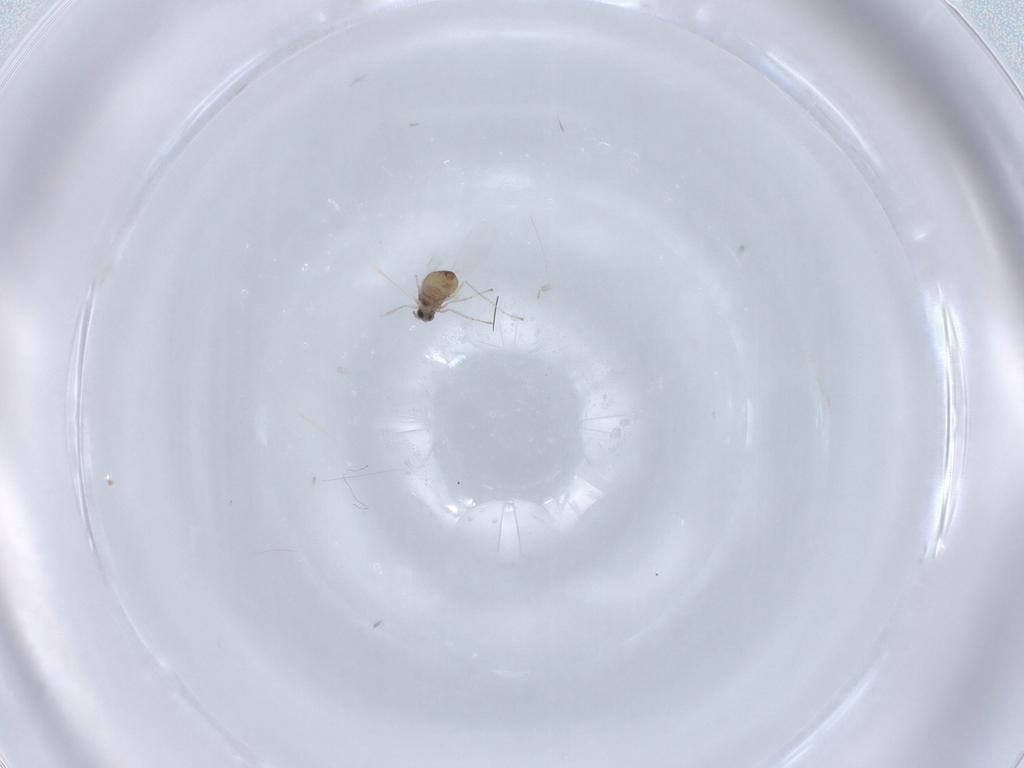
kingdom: Animalia
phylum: Arthropoda
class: Insecta
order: Diptera
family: Cecidomyiidae
